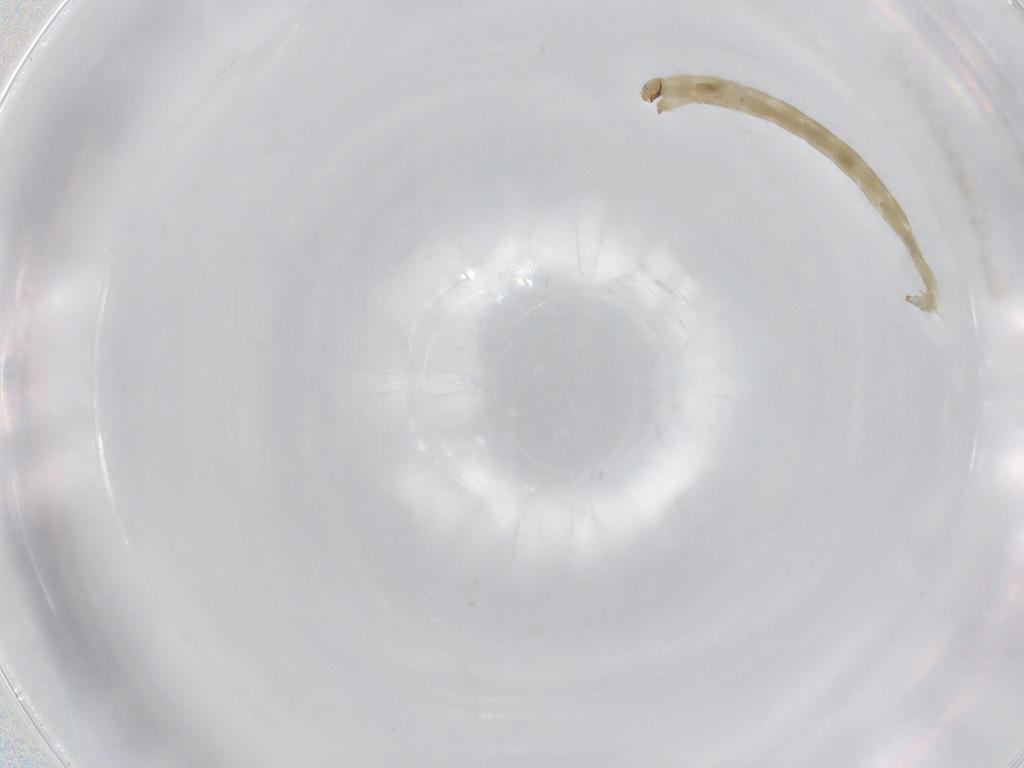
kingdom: Animalia
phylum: Arthropoda
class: Insecta
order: Diptera
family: Chironomidae
